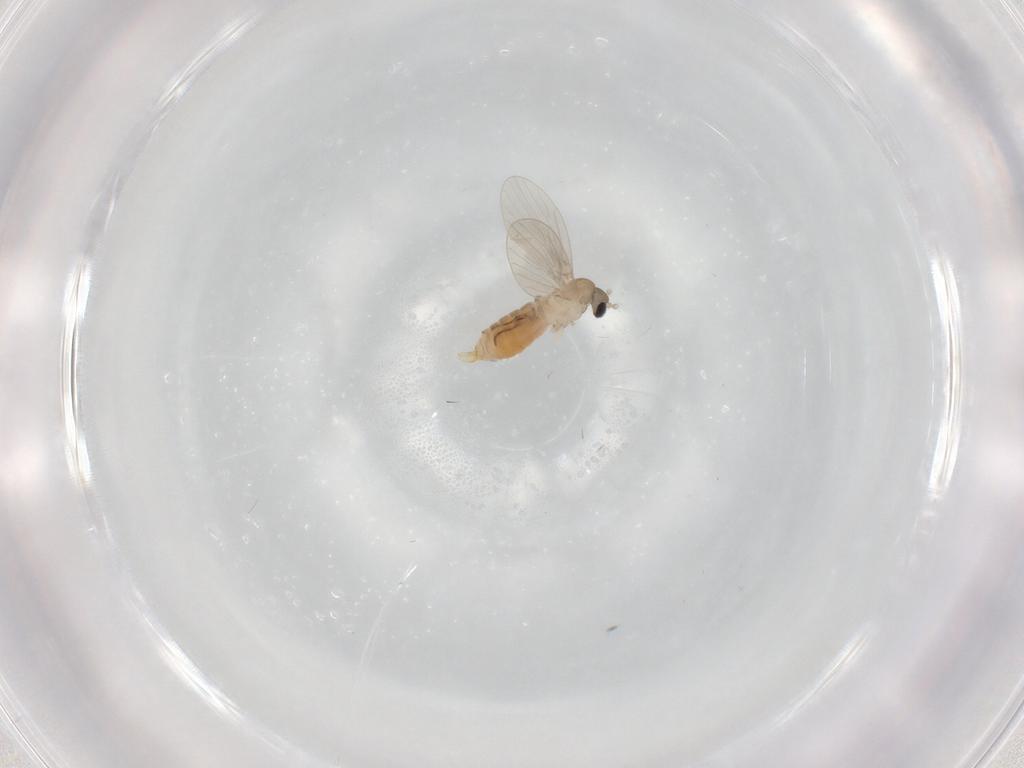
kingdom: Animalia
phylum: Arthropoda
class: Insecta
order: Diptera
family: Psychodidae
